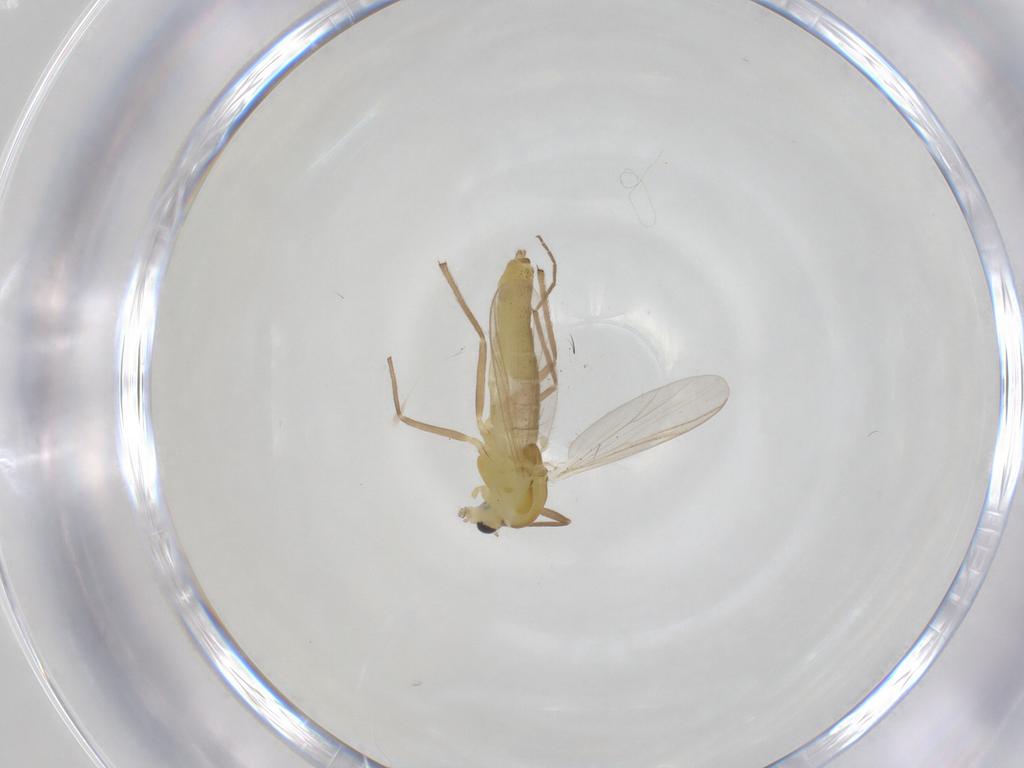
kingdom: Animalia
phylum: Arthropoda
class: Insecta
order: Diptera
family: Chironomidae
